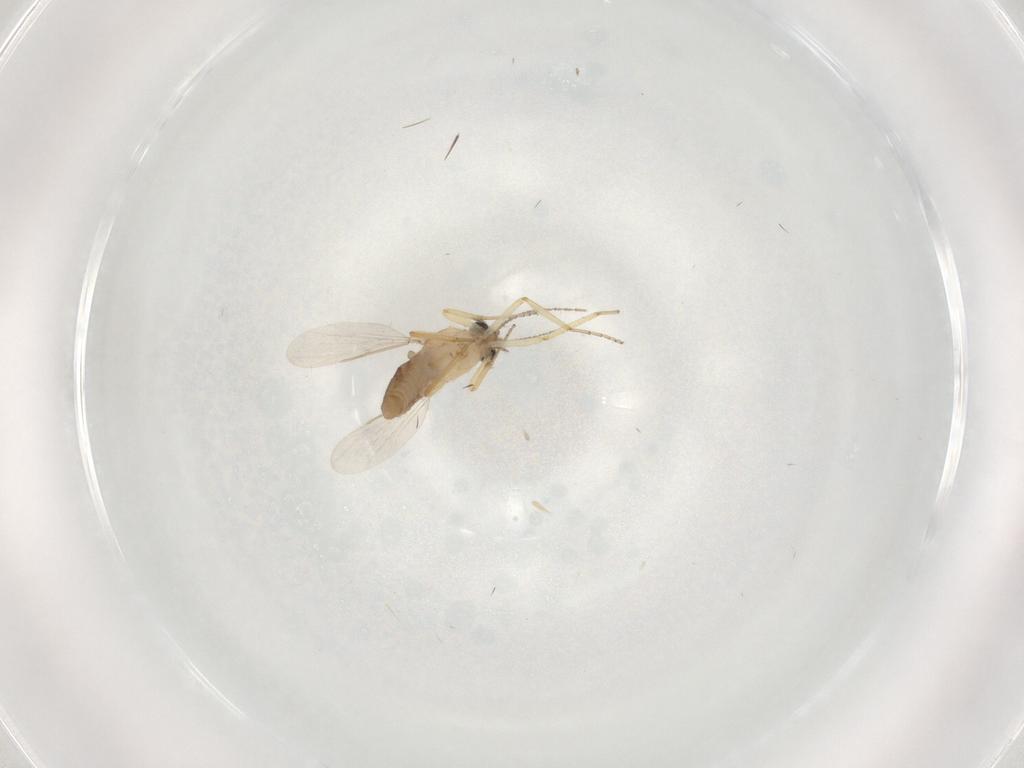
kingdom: Animalia
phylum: Arthropoda
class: Insecta
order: Diptera
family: Ceratopogonidae
